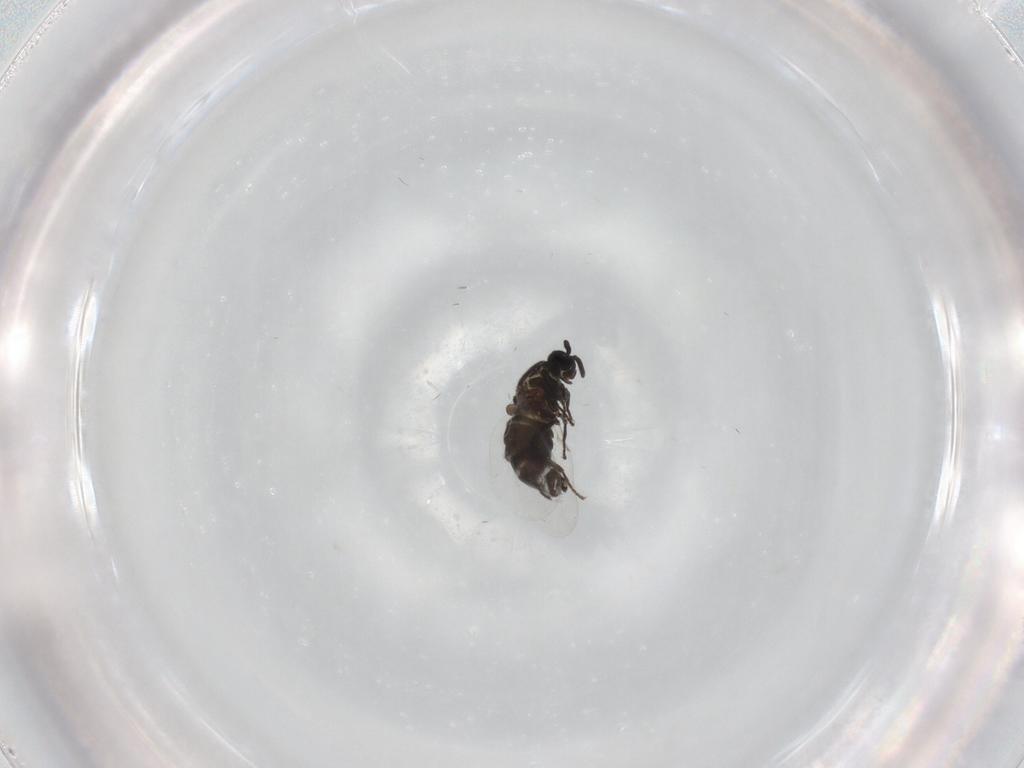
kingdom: Animalia
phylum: Arthropoda
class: Insecta
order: Diptera
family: Scatopsidae
